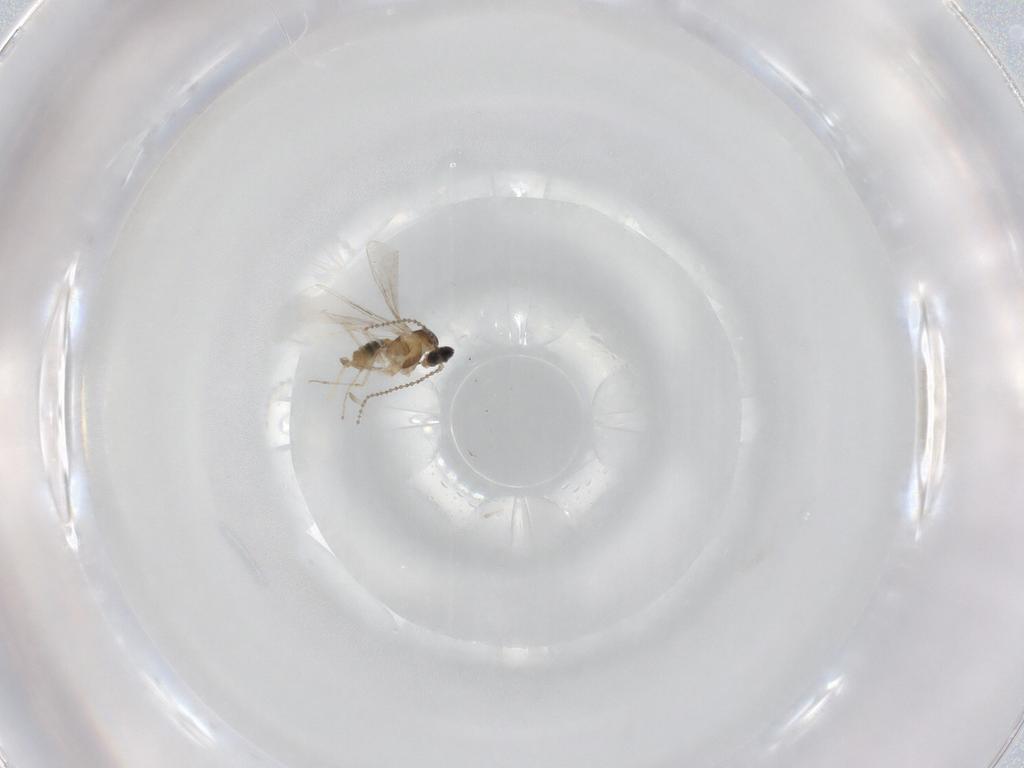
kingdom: Animalia
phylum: Arthropoda
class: Insecta
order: Diptera
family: Cecidomyiidae
